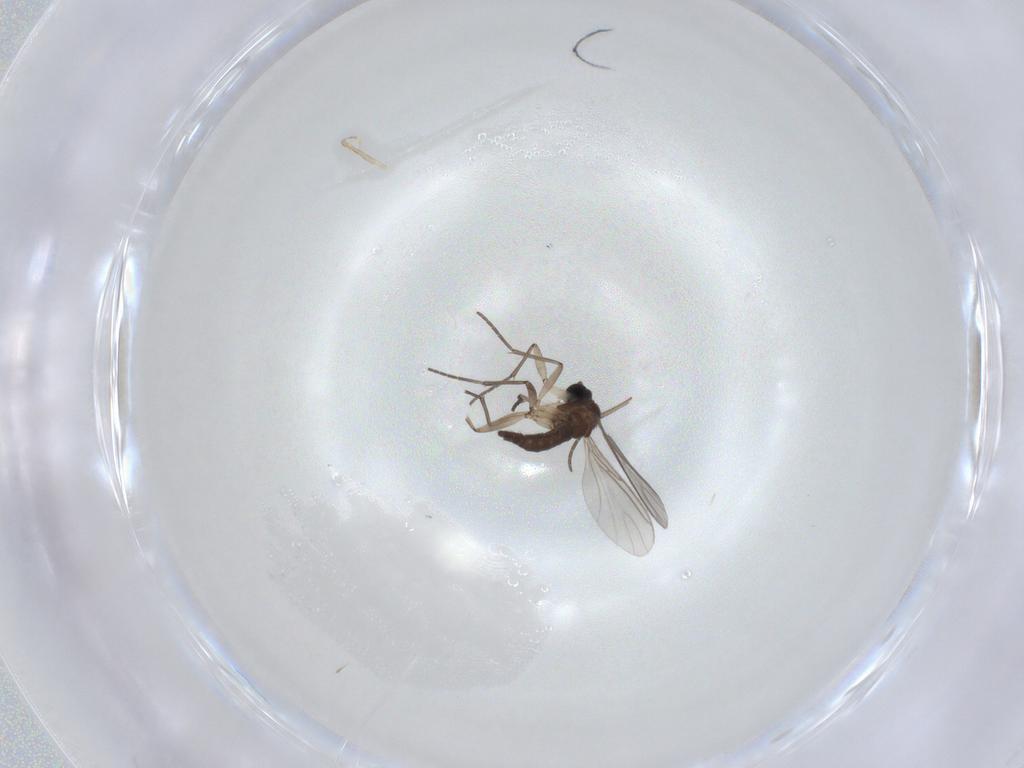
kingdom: Animalia
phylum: Arthropoda
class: Insecta
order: Diptera
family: Sciaridae
